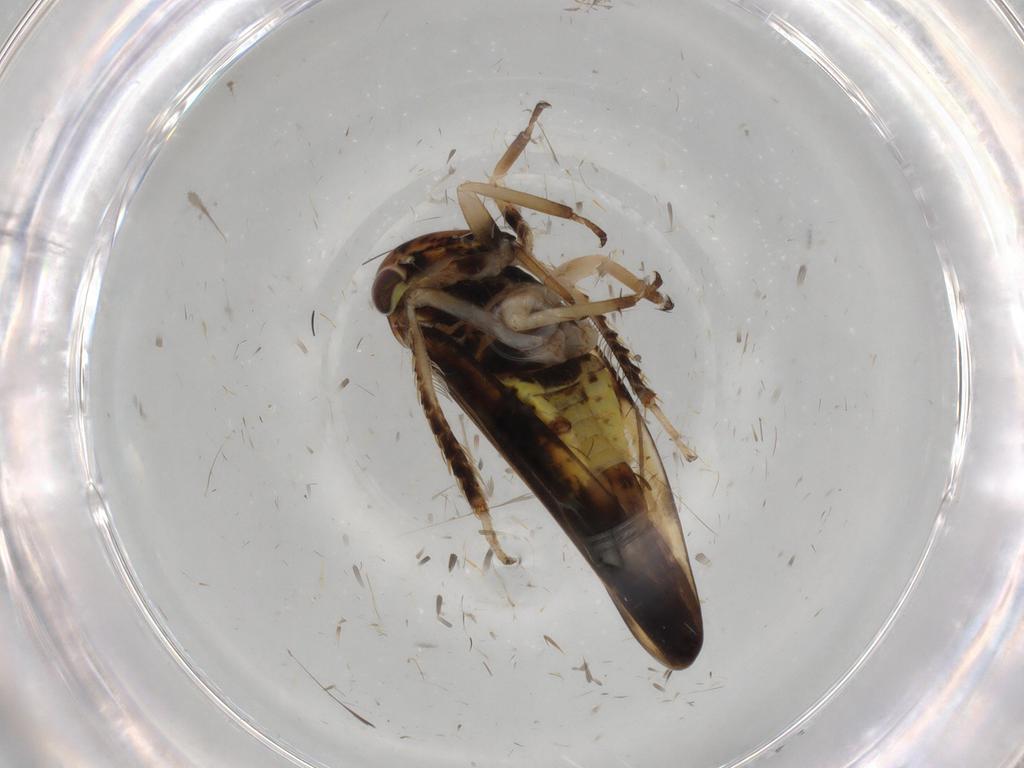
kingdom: Animalia
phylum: Arthropoda
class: Insecta
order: Hemiptera
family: Cicadellidae
